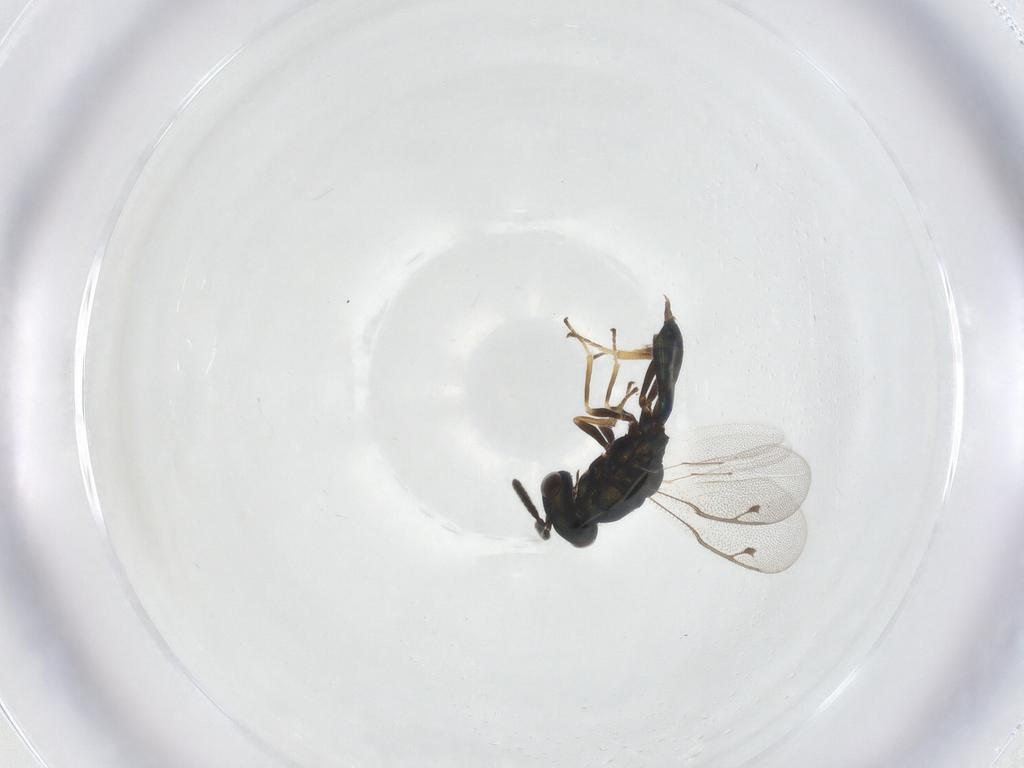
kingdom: Animalia
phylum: Arthropoda
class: Insecta
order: Hymenoptera
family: Pteromalidae
